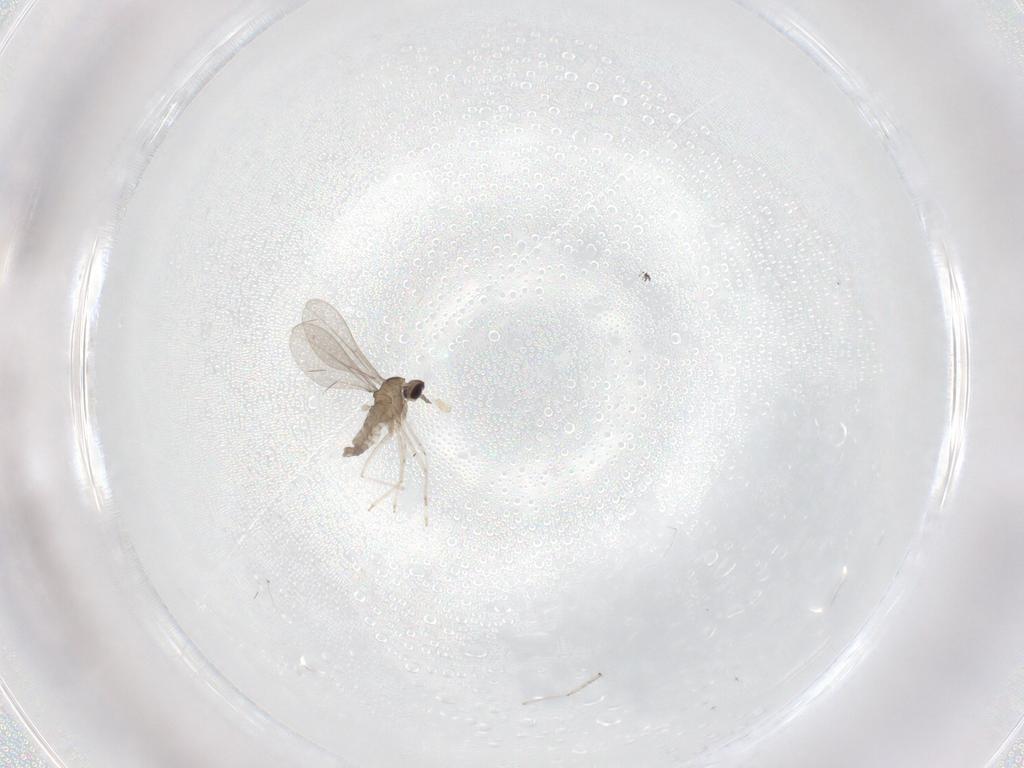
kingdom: Animalia
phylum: Arthropoda
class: Insecta
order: Diptera
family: Cecidomyiidae
